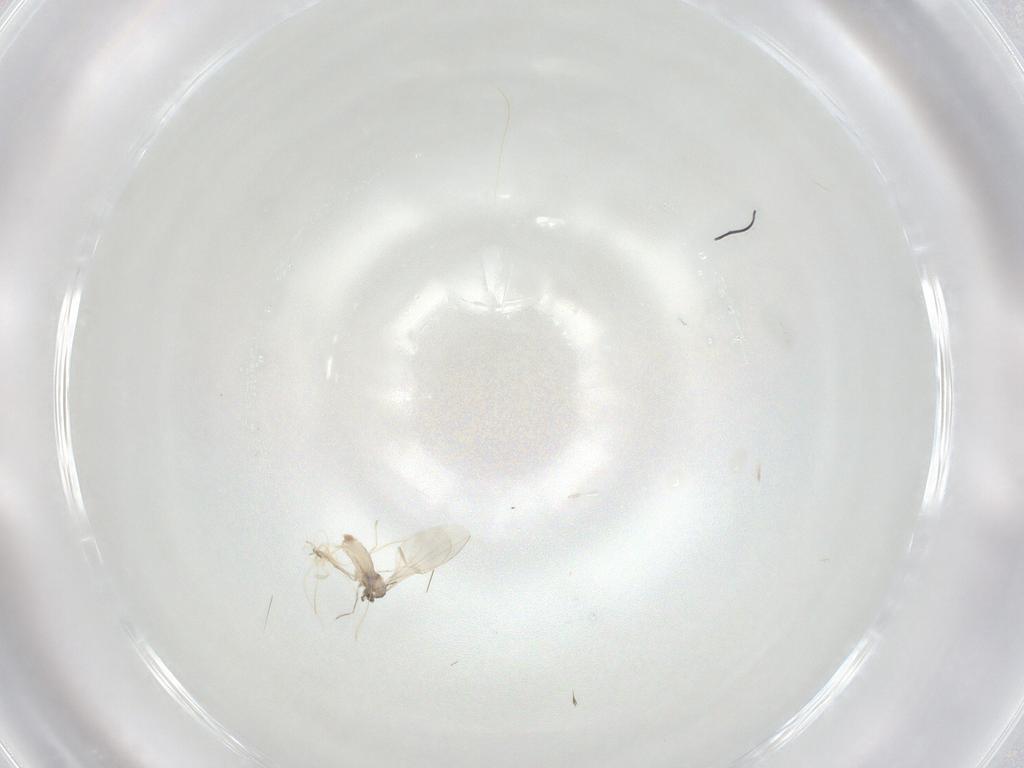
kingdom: Animalia
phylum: Arthropoda
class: Insecta
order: Diptera
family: Cecidomyiidae
